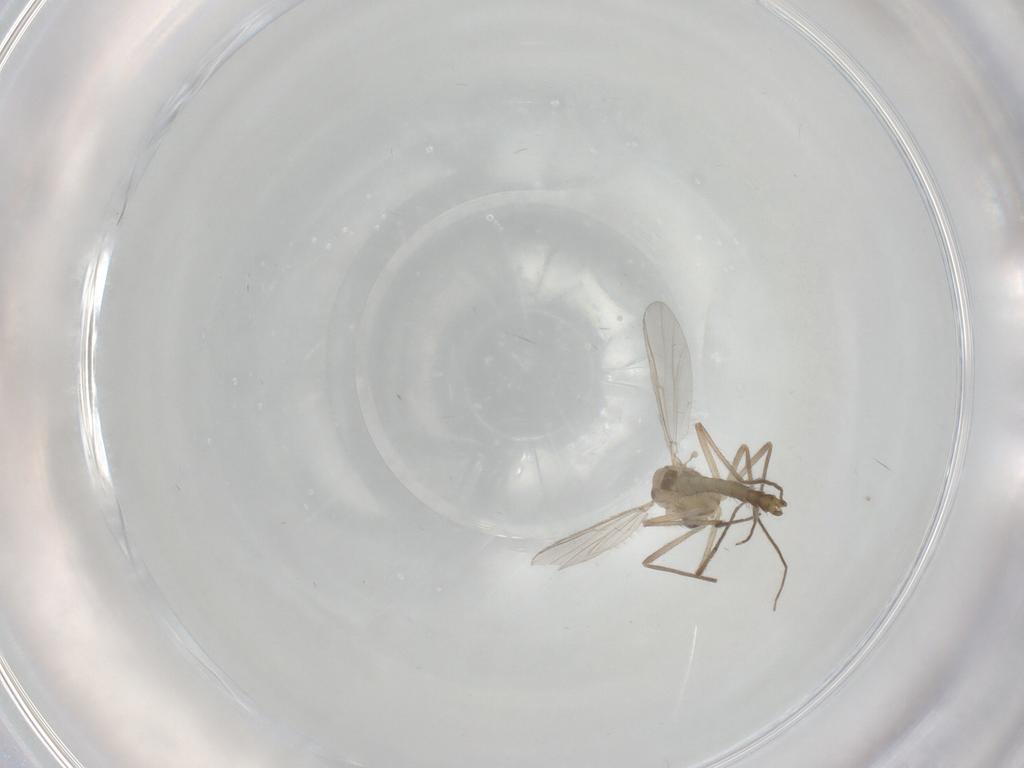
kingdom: Animalia
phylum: Arthropoda
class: Insecta
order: Diptera
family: Chironomidae
